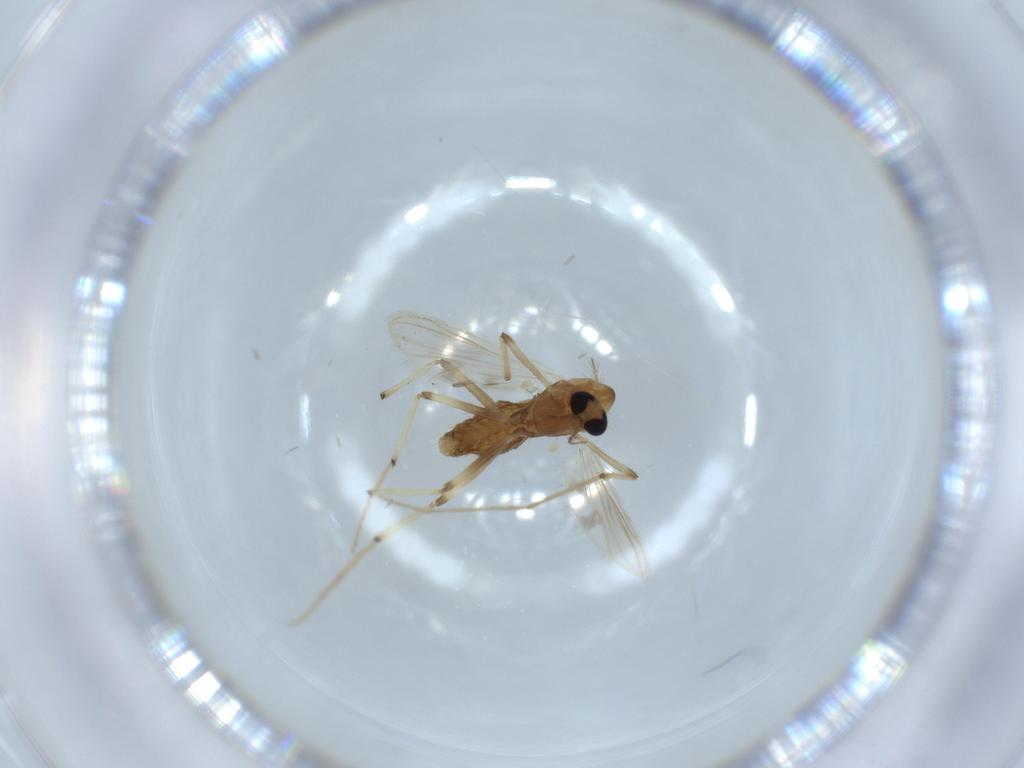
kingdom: Animalia
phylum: Arthropoda
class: Insecta
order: Diptera
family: Chironomidae
